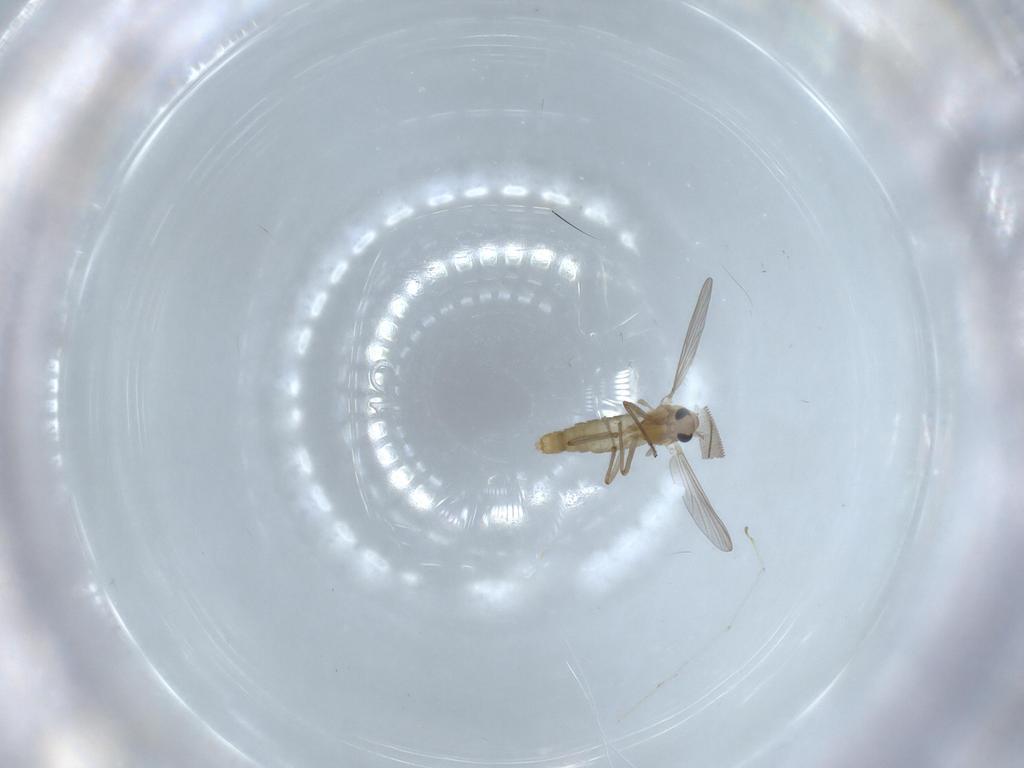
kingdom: Animalia
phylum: Arthropoda
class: Insecta
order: Diptera
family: Chironomidae
